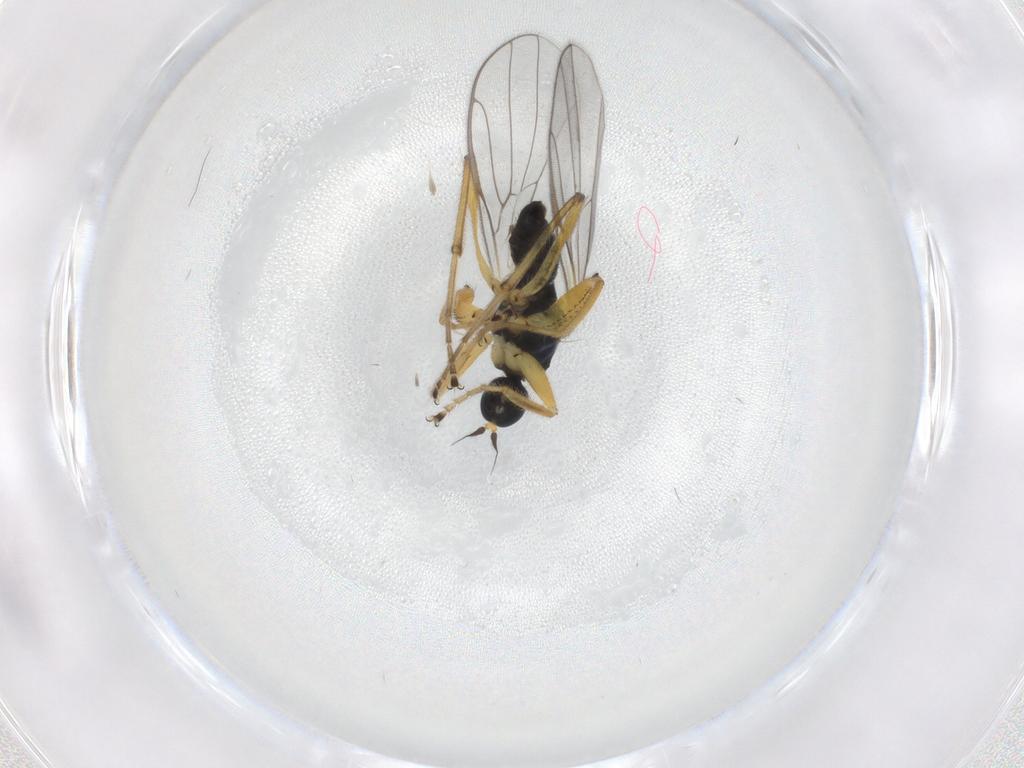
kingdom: Animalia
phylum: Arthropoda
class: Insecta
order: Diptera
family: Hybotidae
